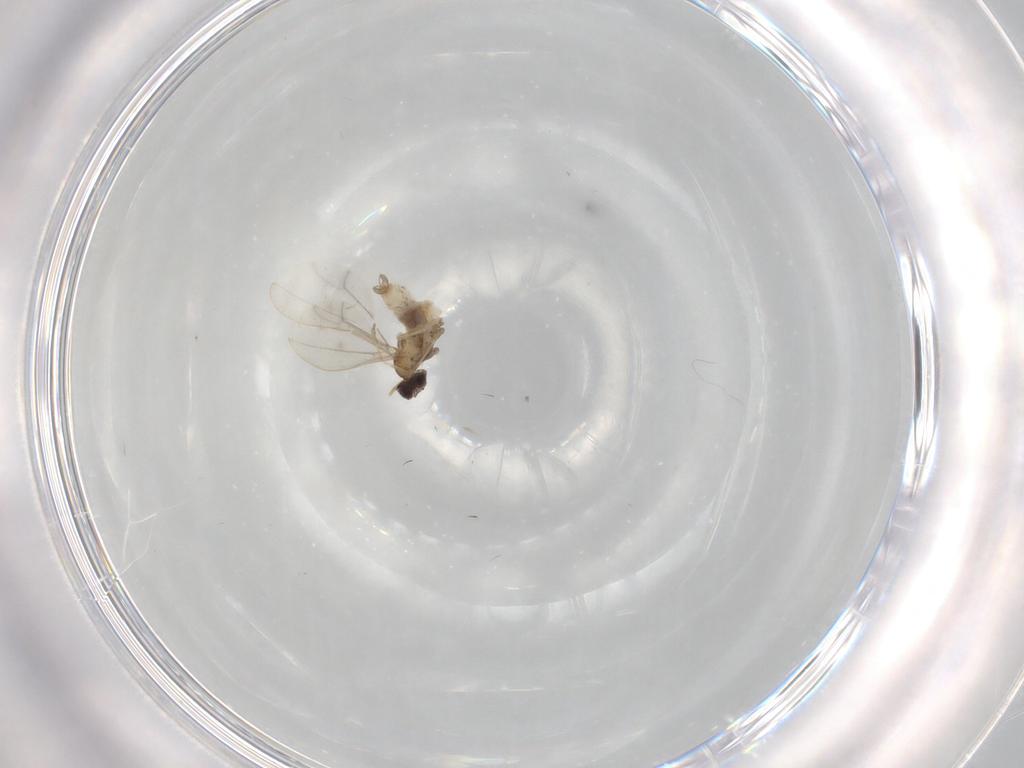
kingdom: Animalia
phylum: Arthropoda
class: Insecta
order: Diptera
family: Cecidomyiidae
